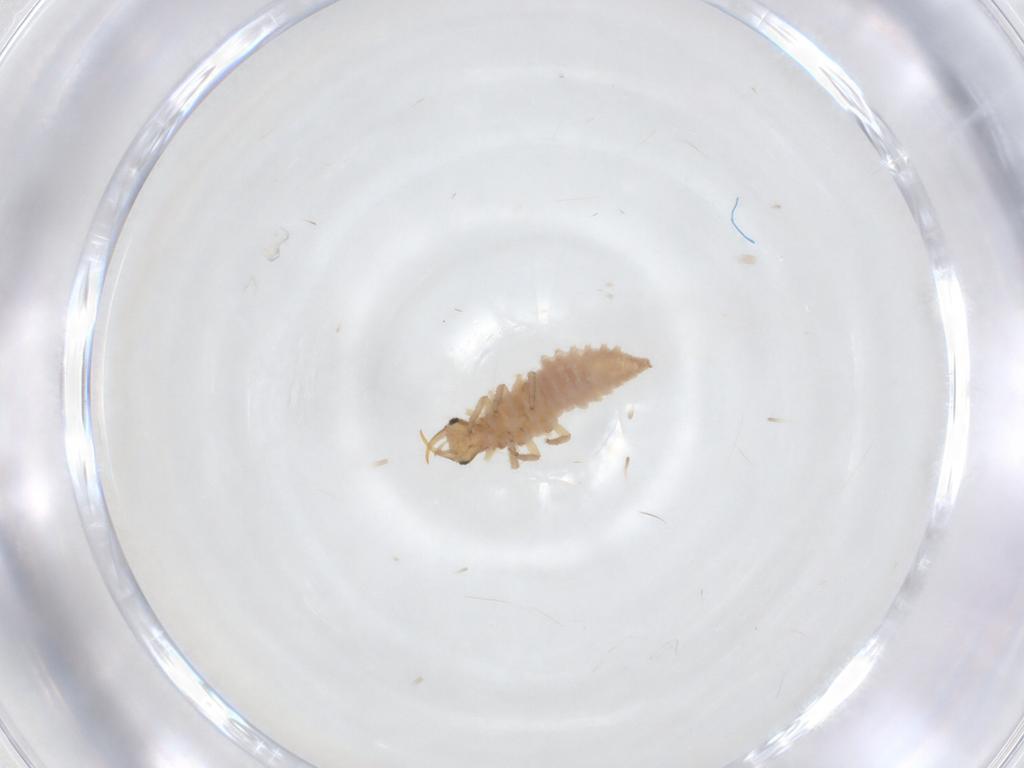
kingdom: Animalia
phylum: Arthropoda
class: Insecta
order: Neuroptera
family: Chrysopidae
